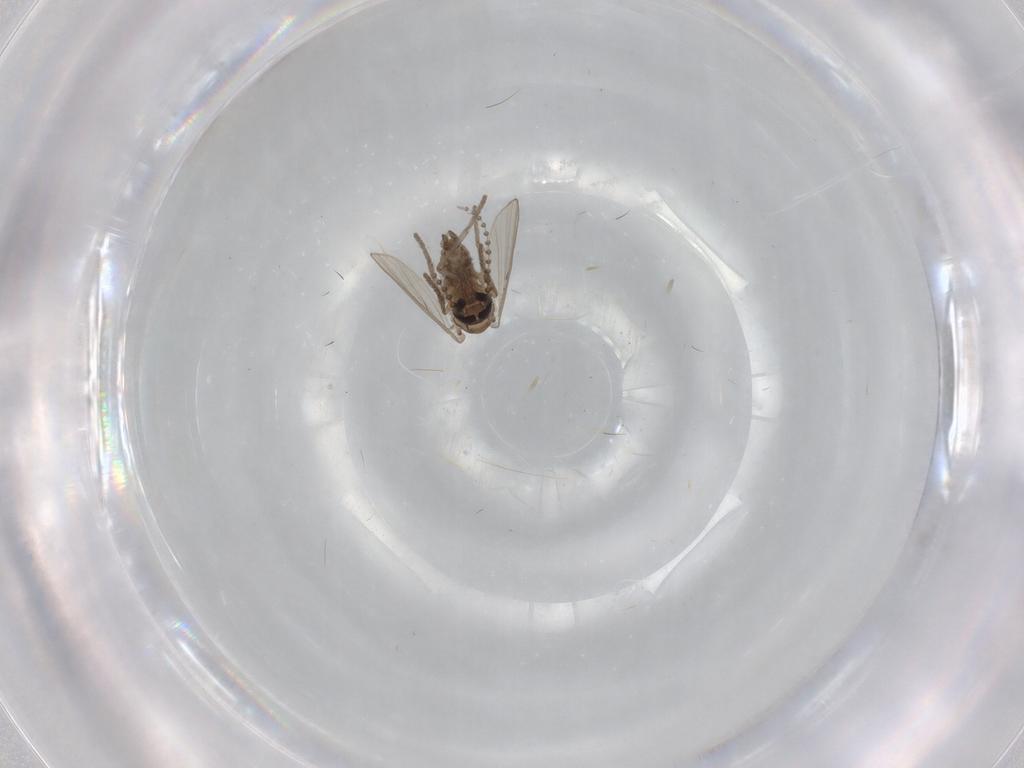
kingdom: Animalia
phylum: Arthropoda
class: Insecta
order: Diptera
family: Psychodidae
